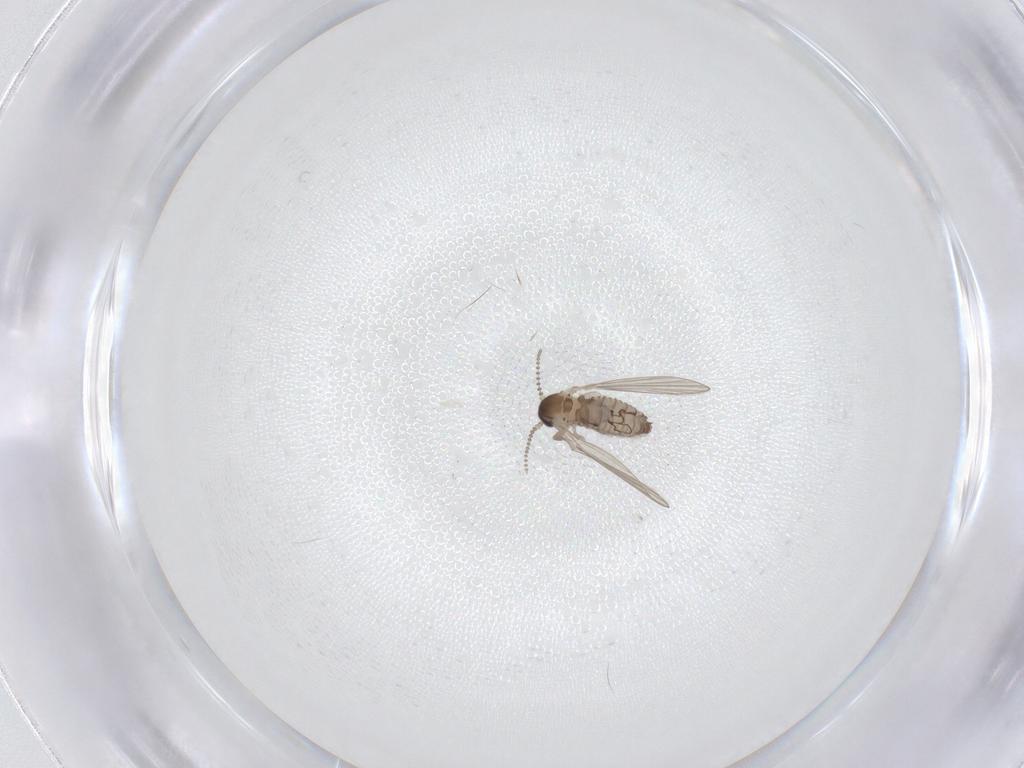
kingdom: Animalia
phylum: Arthropoda
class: Insecta
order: Diptera
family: Psychodidae
